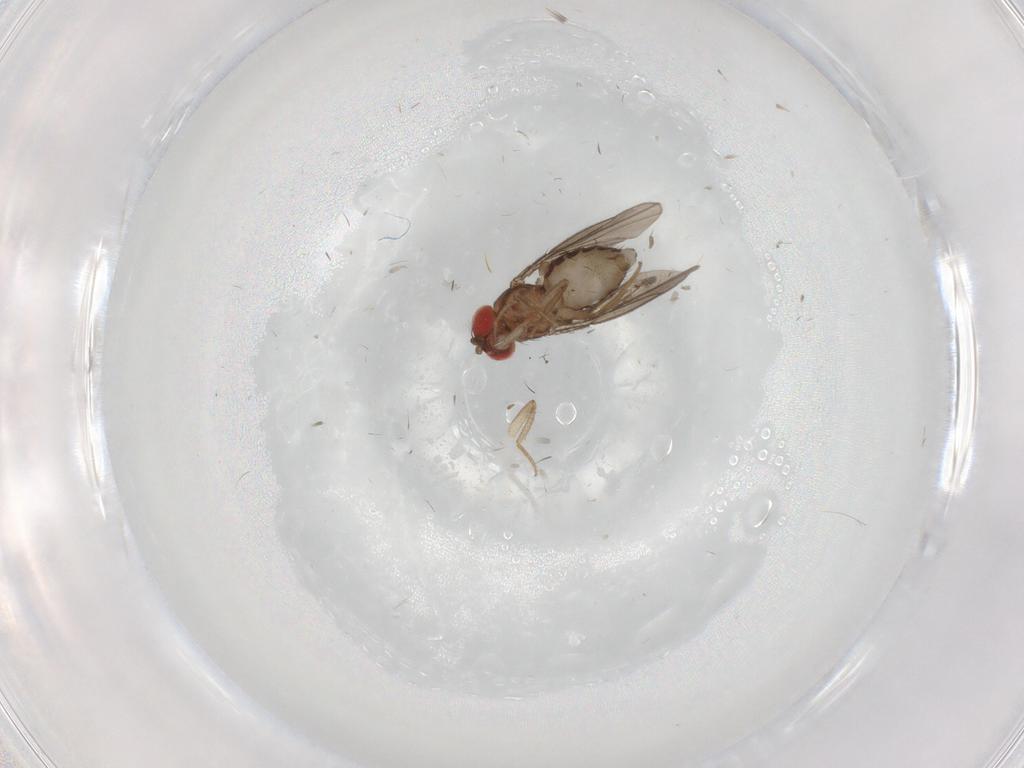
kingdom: Animalia
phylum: Arthropoda
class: Insecta
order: Diptera
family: Drosophilidae
